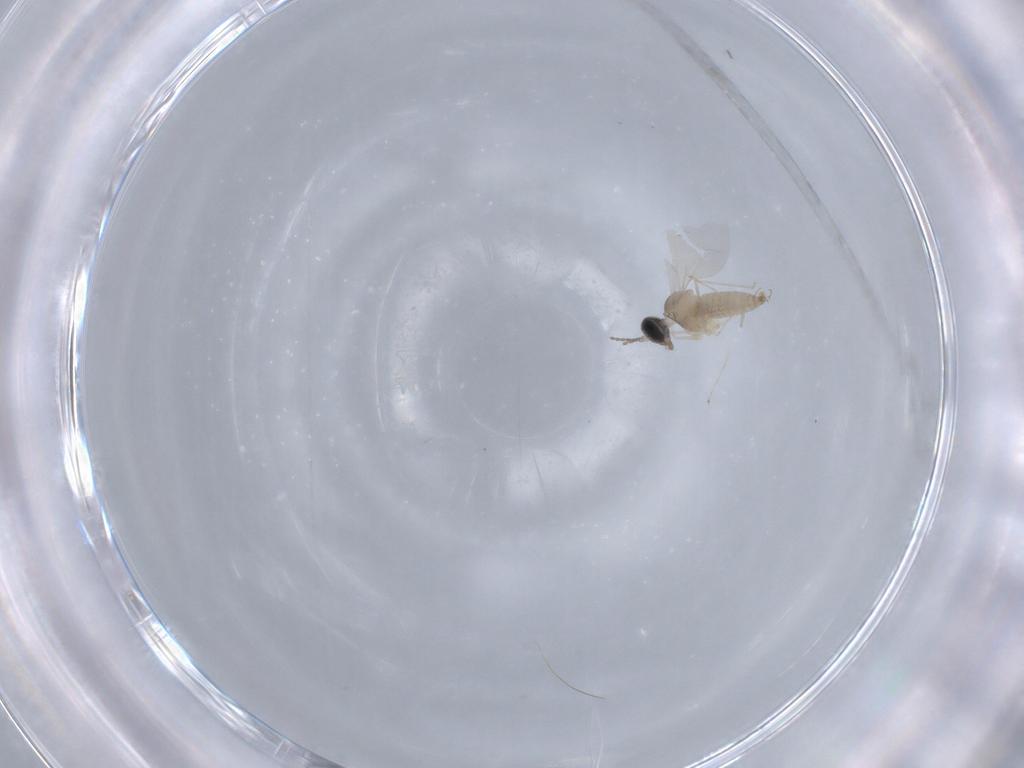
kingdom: Animalia
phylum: Arthropoda
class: Insecta
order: Diptera
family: Cecidomyiidae
